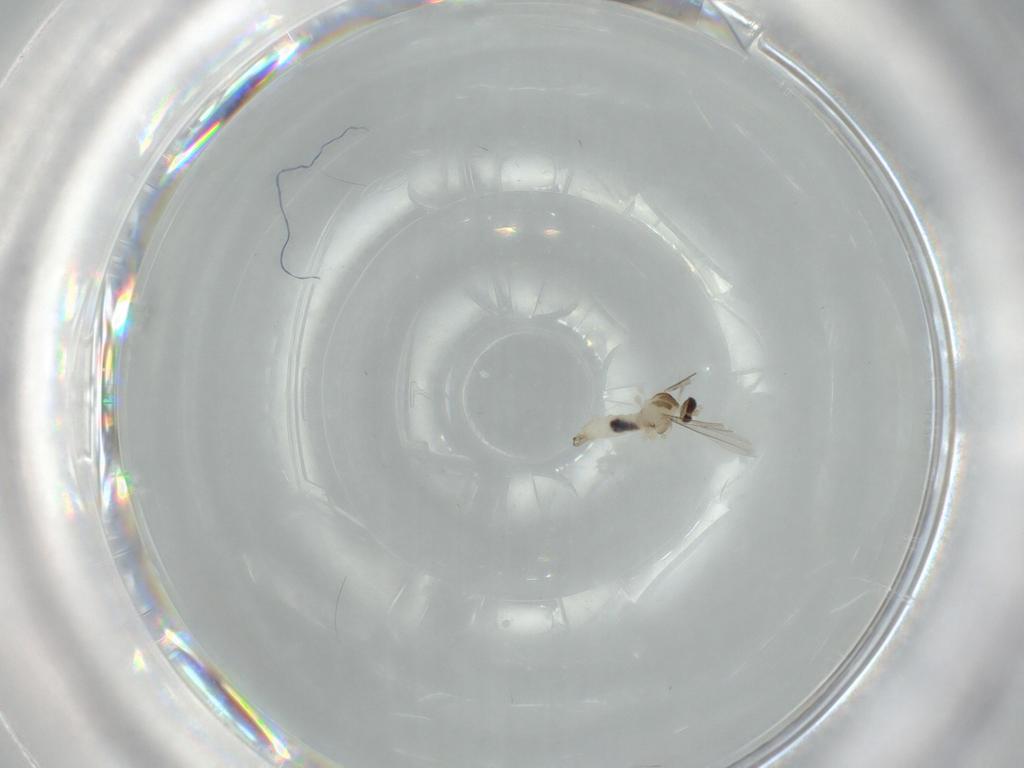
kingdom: Animalia
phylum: Arthropoda
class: Insecta
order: Diptera
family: Cecidomyiidae
